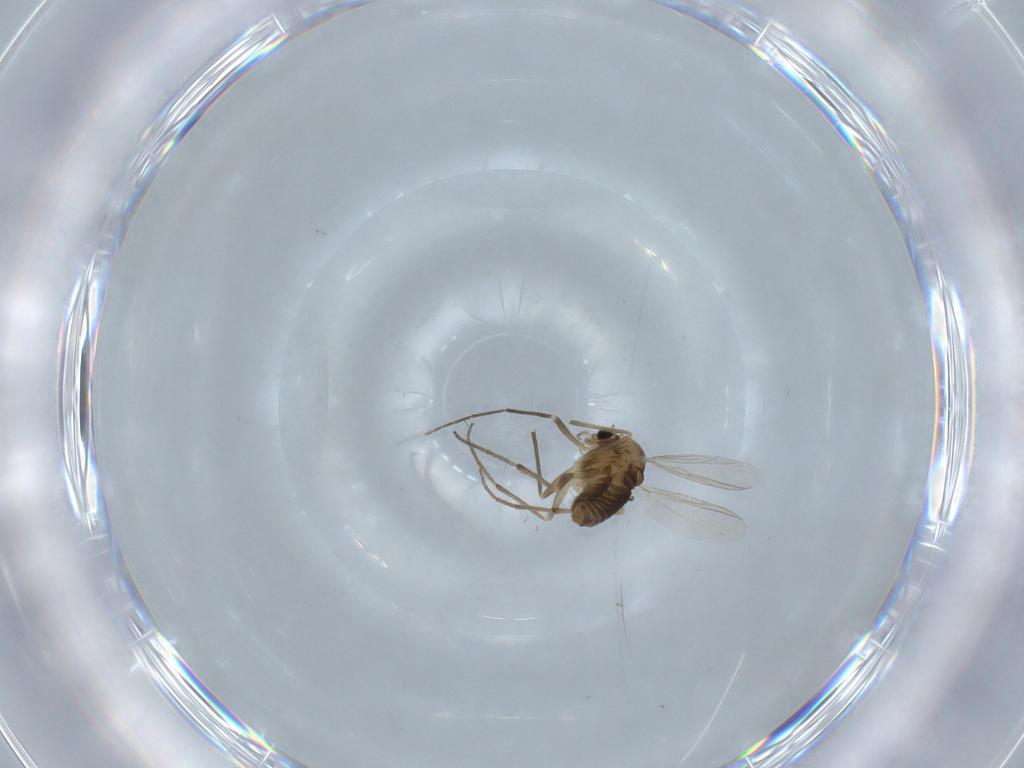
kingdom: Animalia
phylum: Arthropoda
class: Insecta
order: Diptera
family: Chironomidae
